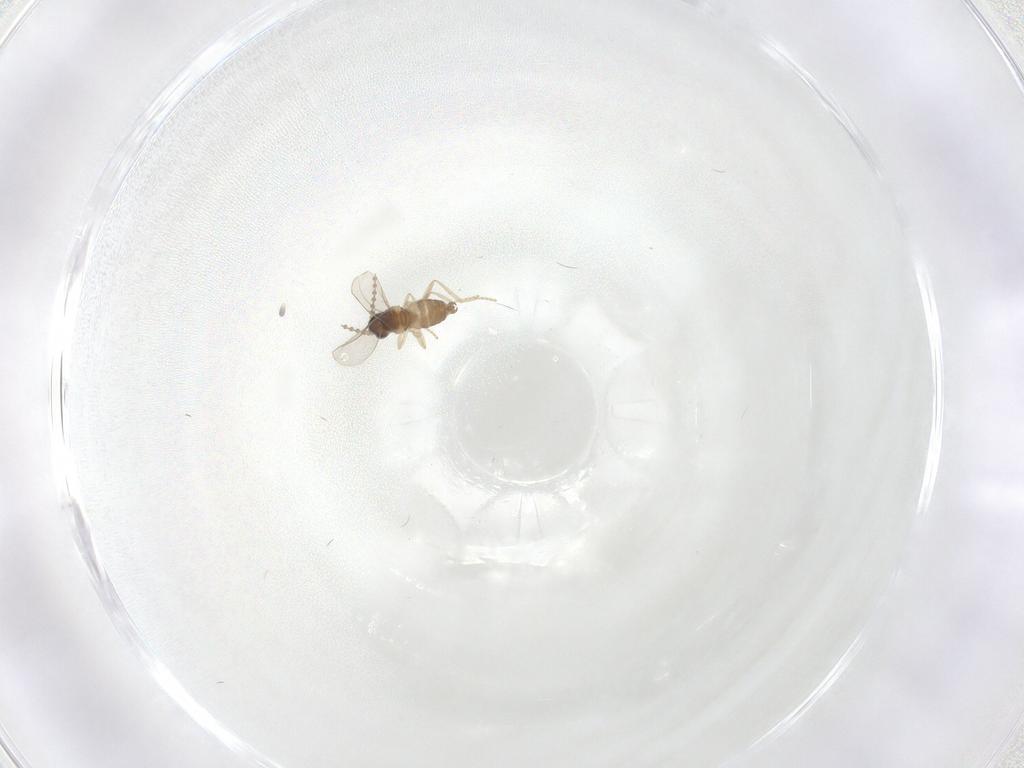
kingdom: Animalia
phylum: Arthropoda
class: Insecta
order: Diptera
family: Cecidomyiidae
